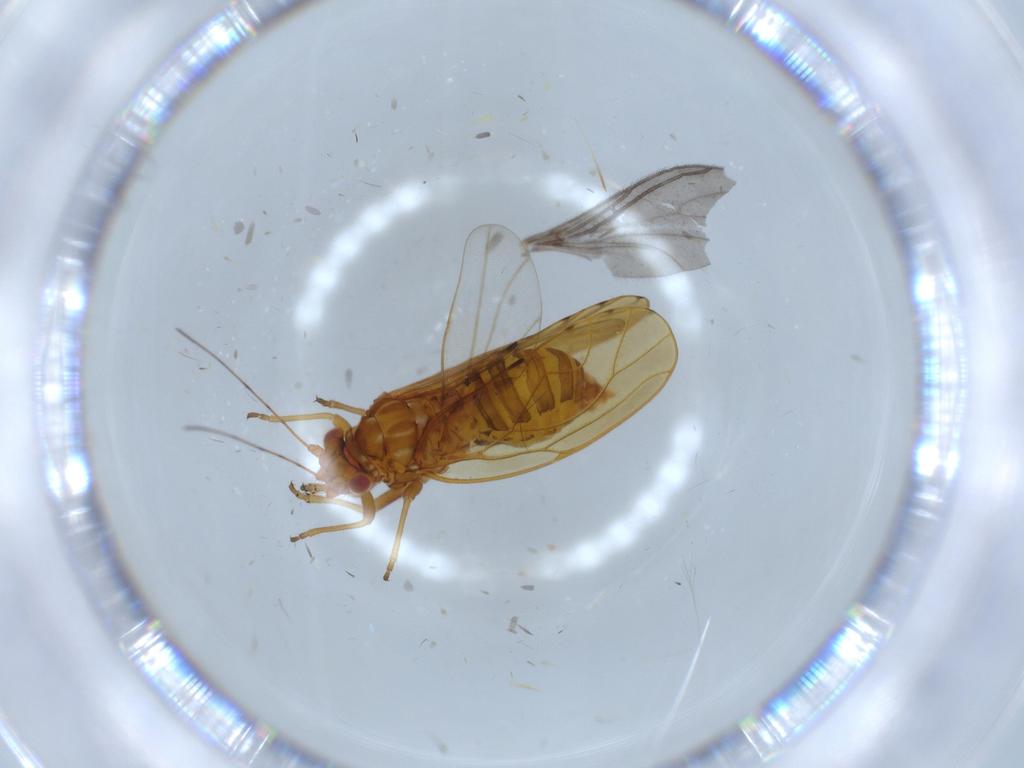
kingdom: Animalia
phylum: Arthropoda
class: Insecta
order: Hemiptera
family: Psylloidea_incertae_sedis
